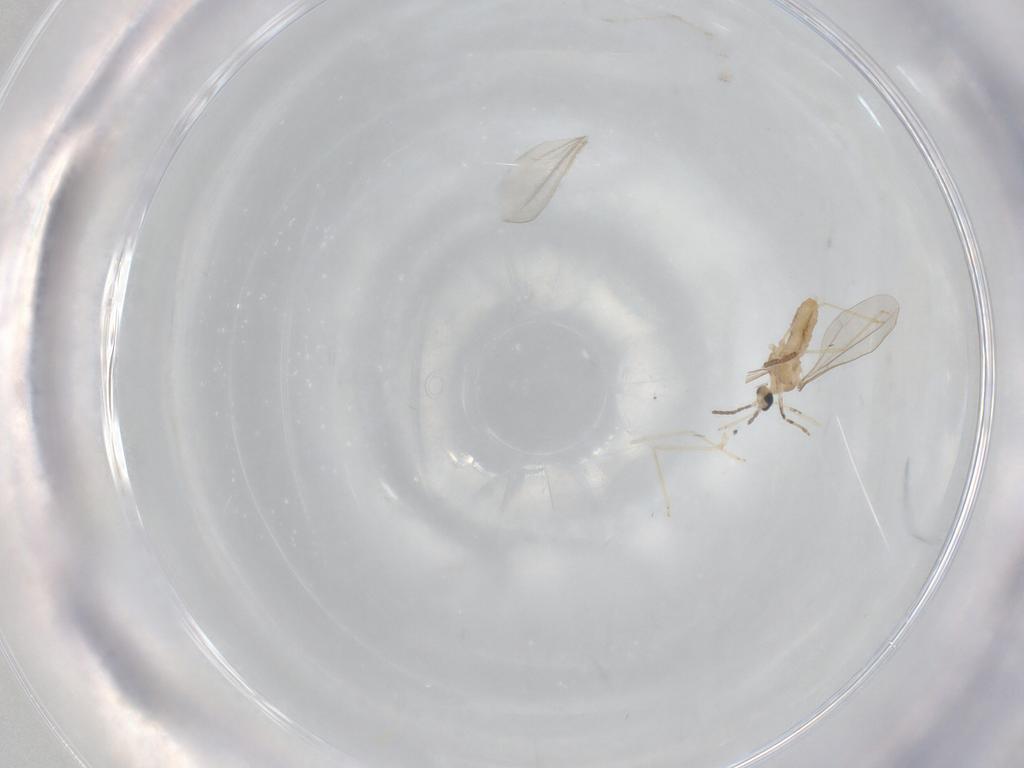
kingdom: Animalia
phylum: Arthropoda
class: Insecta
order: Diptera
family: Cecidomyiidae
